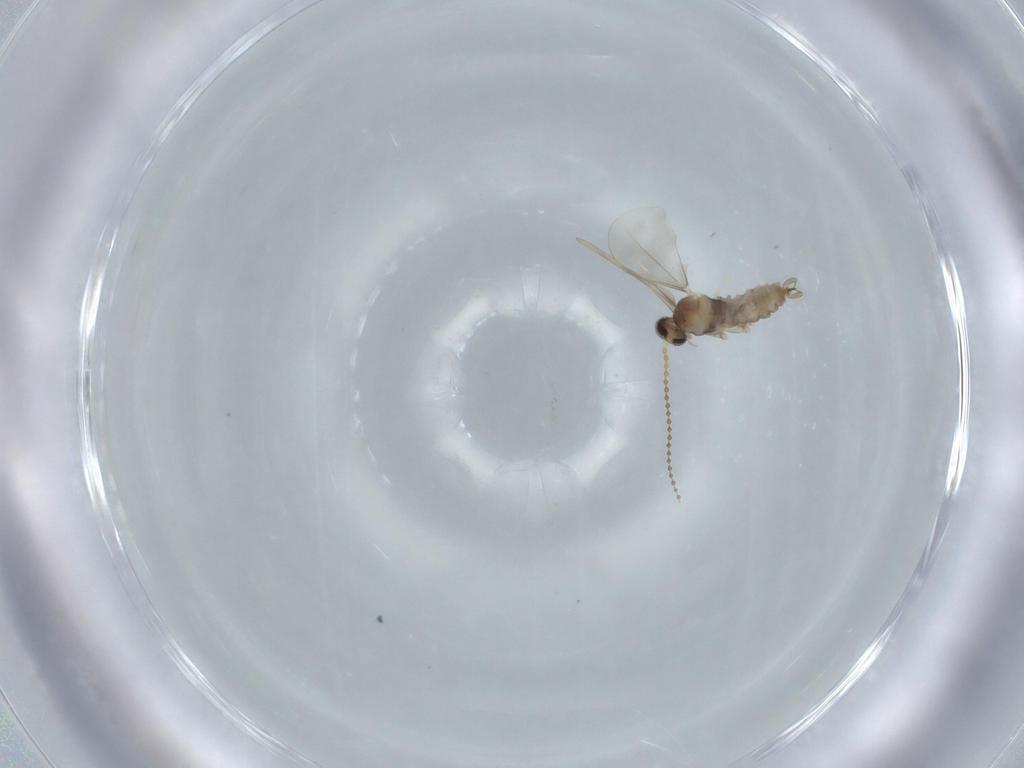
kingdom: Animalia
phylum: Arthropoda
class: Insecta
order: Diptera
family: Cecidomyiidae
